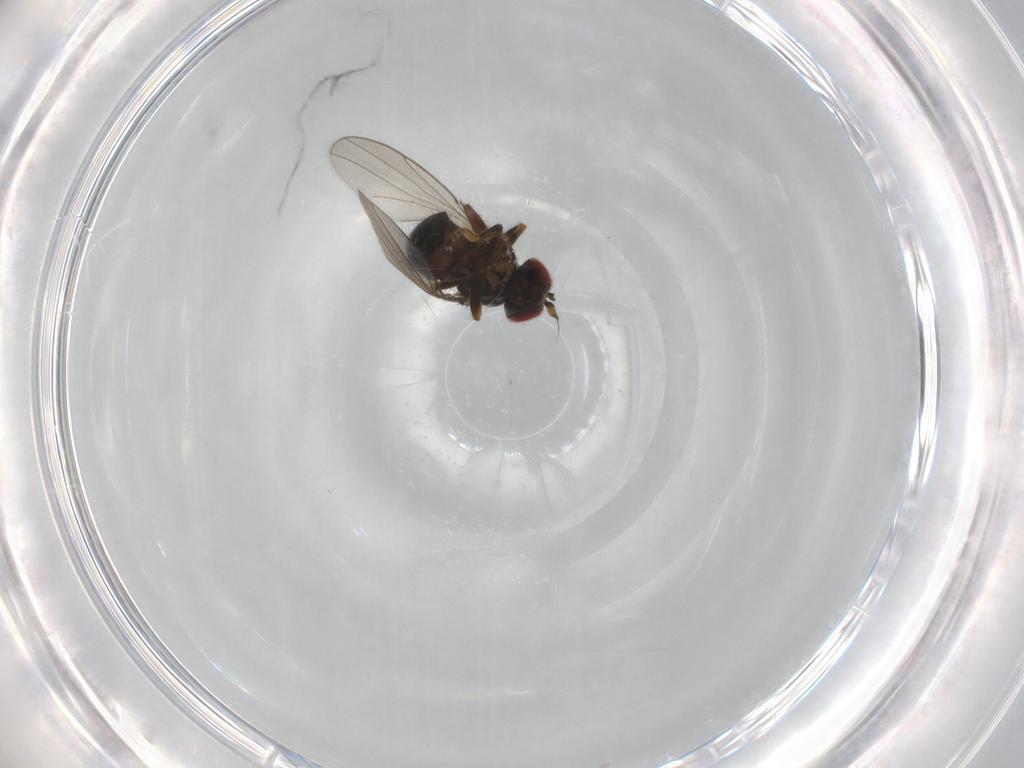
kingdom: Animalia
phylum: Arthropoda
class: Insecta
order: Diptera
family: Ephydridae
